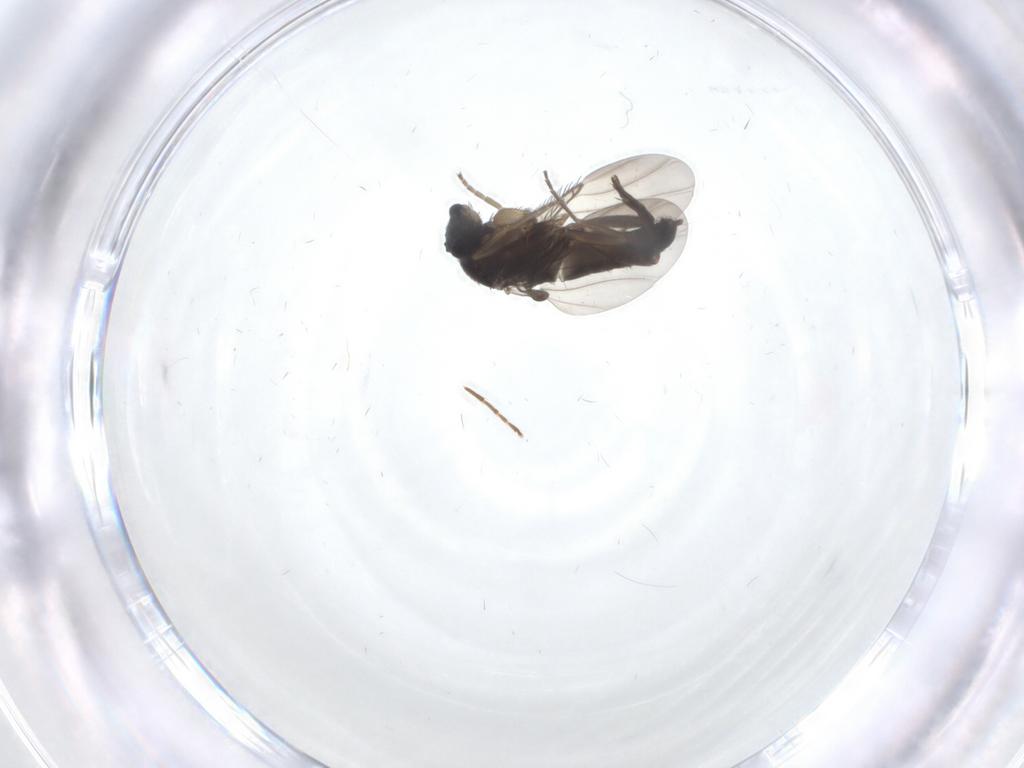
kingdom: Animalia
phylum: Arthropoda
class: Insecta
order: Diptera
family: Phoridae
